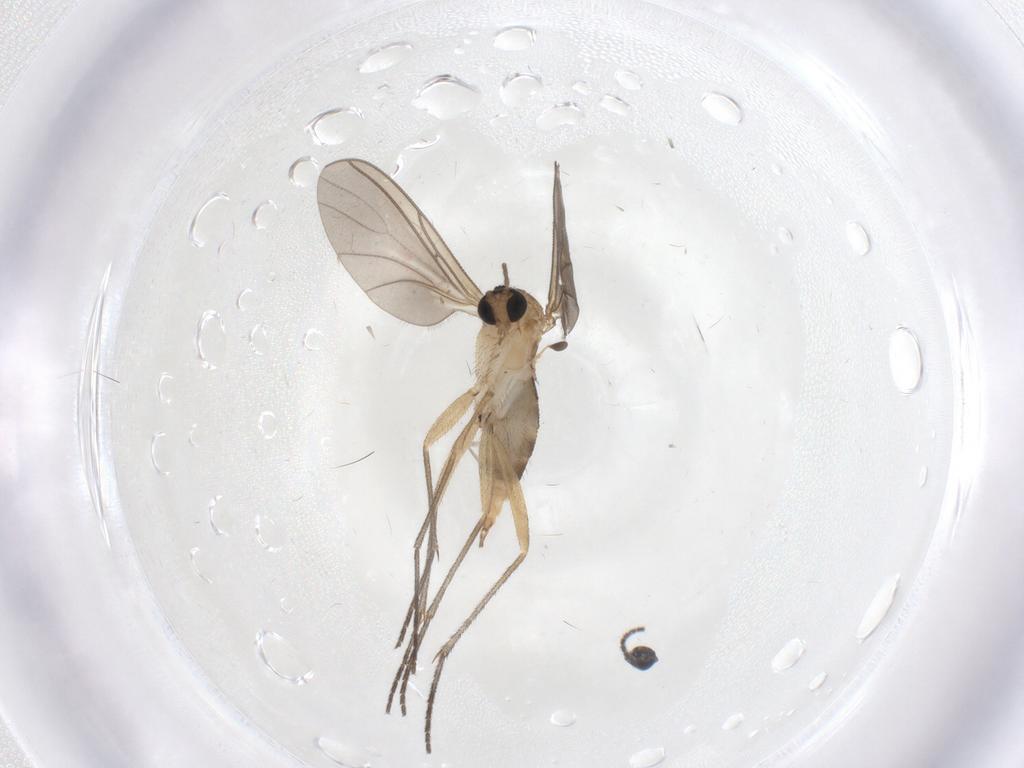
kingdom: Animalia
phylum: Arthropoda
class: Insecta
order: Diptera
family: Sciaridae
